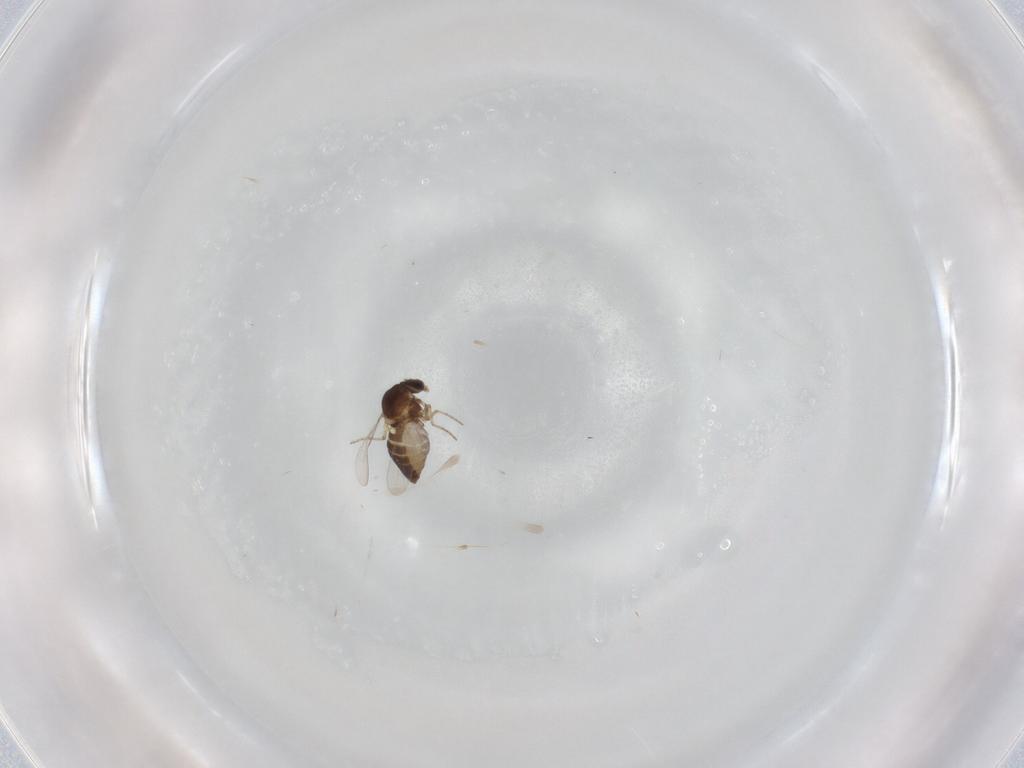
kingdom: Animalia
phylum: Arthropoda
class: Insecta
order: Diptera
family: Ceratopogonidae
